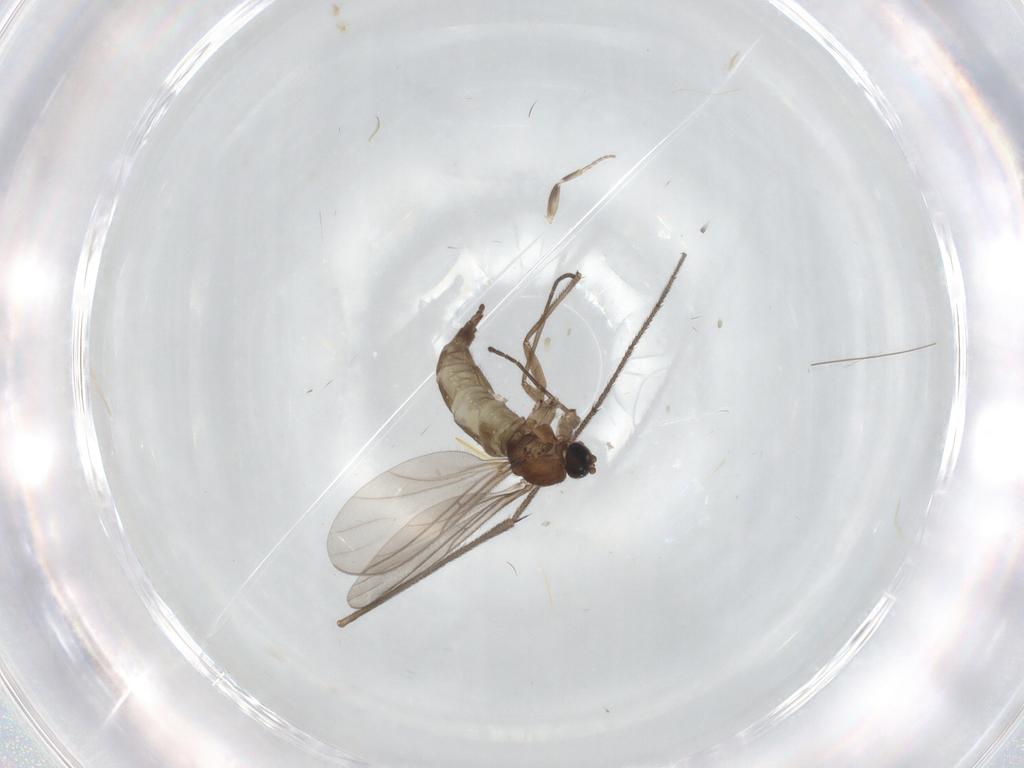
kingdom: Animalia
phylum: Arthropoda
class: Insecta
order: Diptera
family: Sciaridae
